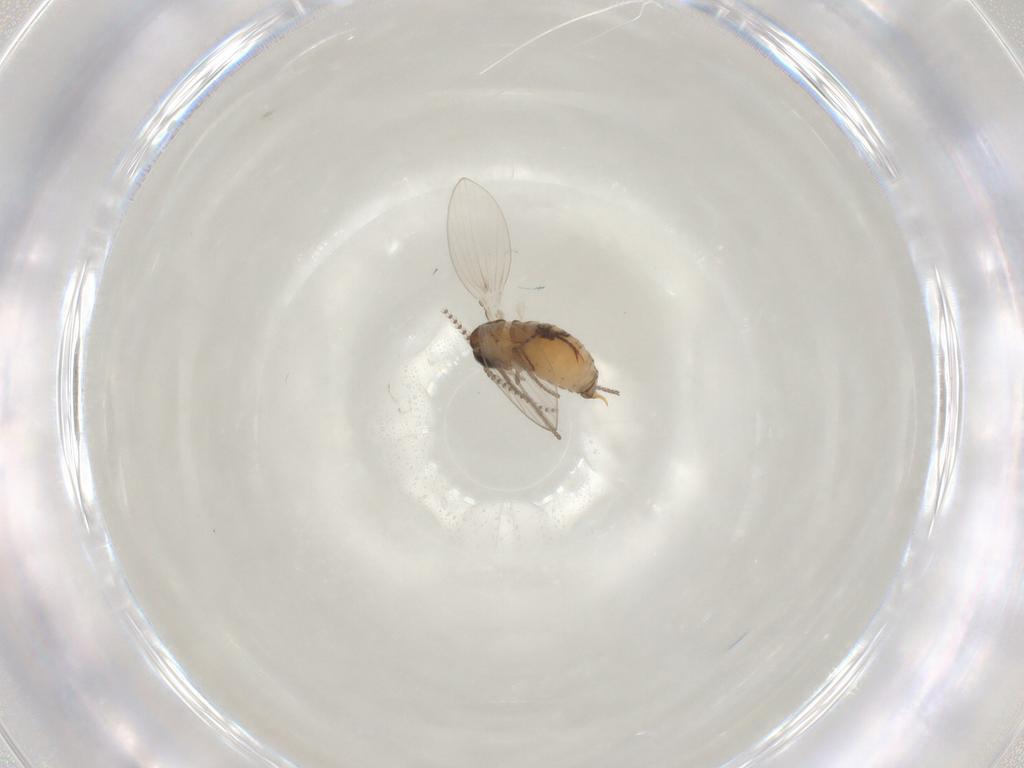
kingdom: Animalia
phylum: Arthropoda
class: Insecta
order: Diptera
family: Psychodidae
